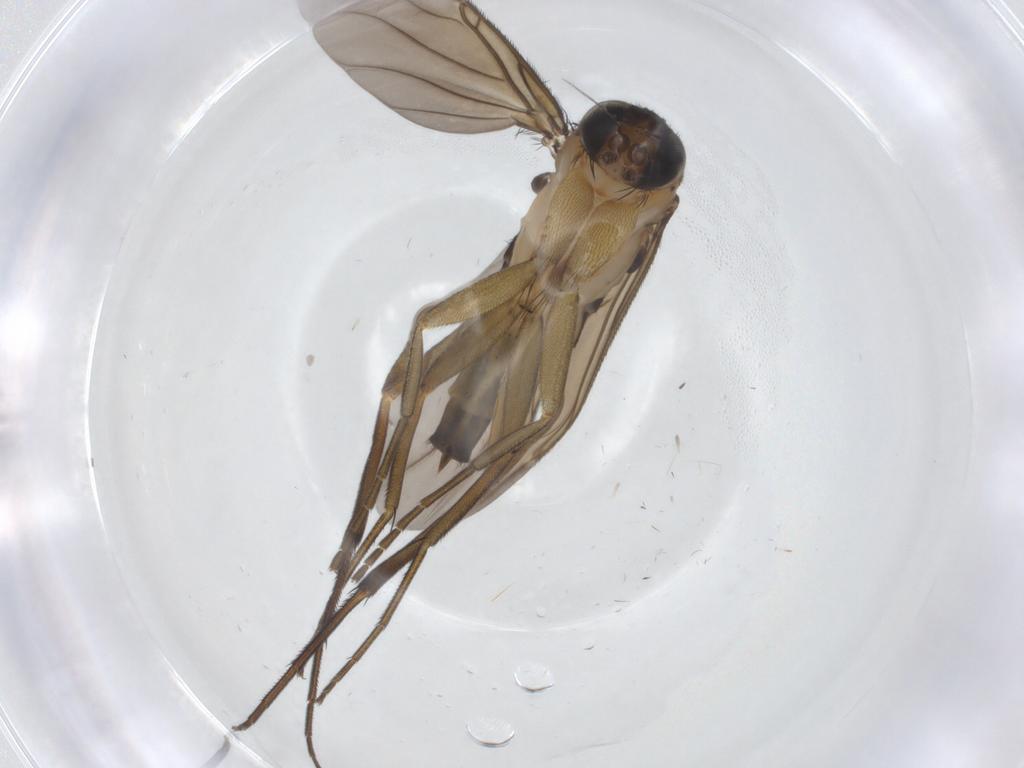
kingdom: Animalia
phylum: Arthropoda
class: Insecta
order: Diptera
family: Phoridae
